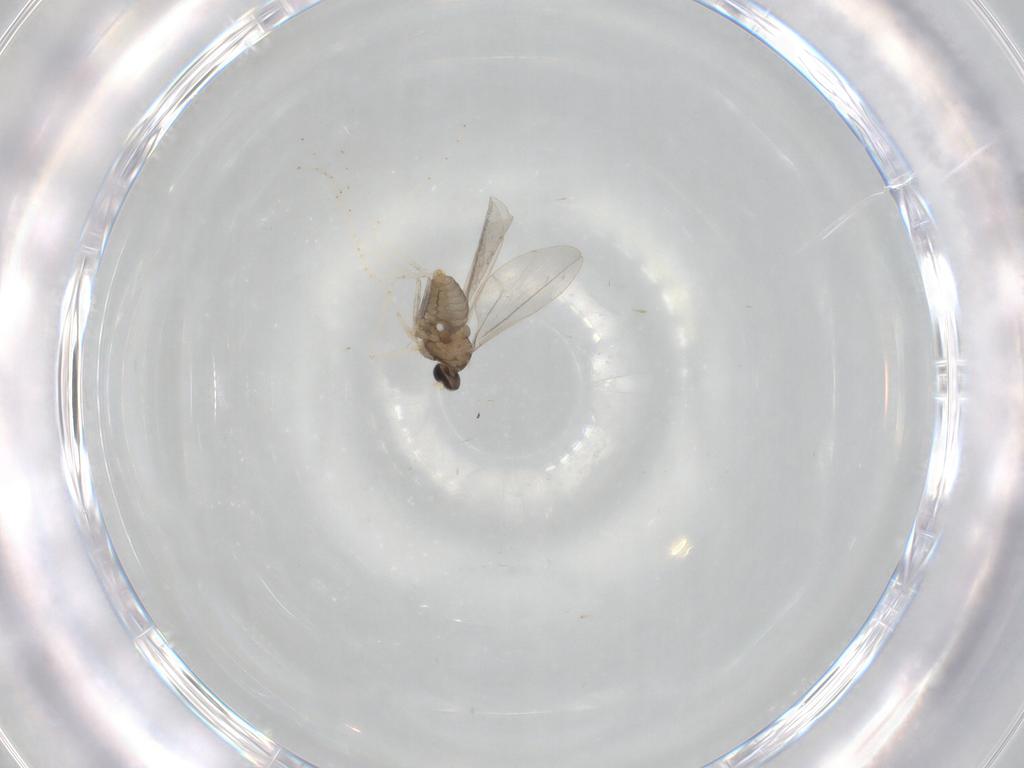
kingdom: Animalia
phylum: Arthropoda
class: Insecta
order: Diptera
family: Cecidomyiidae
